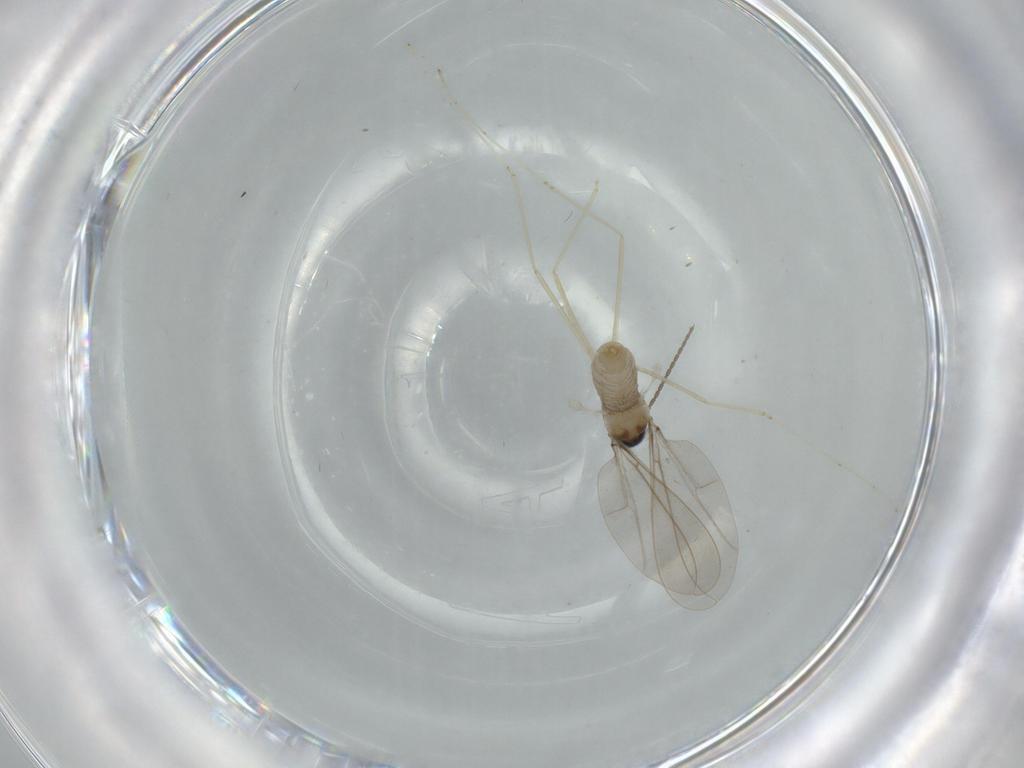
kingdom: Animalia
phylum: Arthropoda
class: Insecta
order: Diptera
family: Cecidomyiidae
